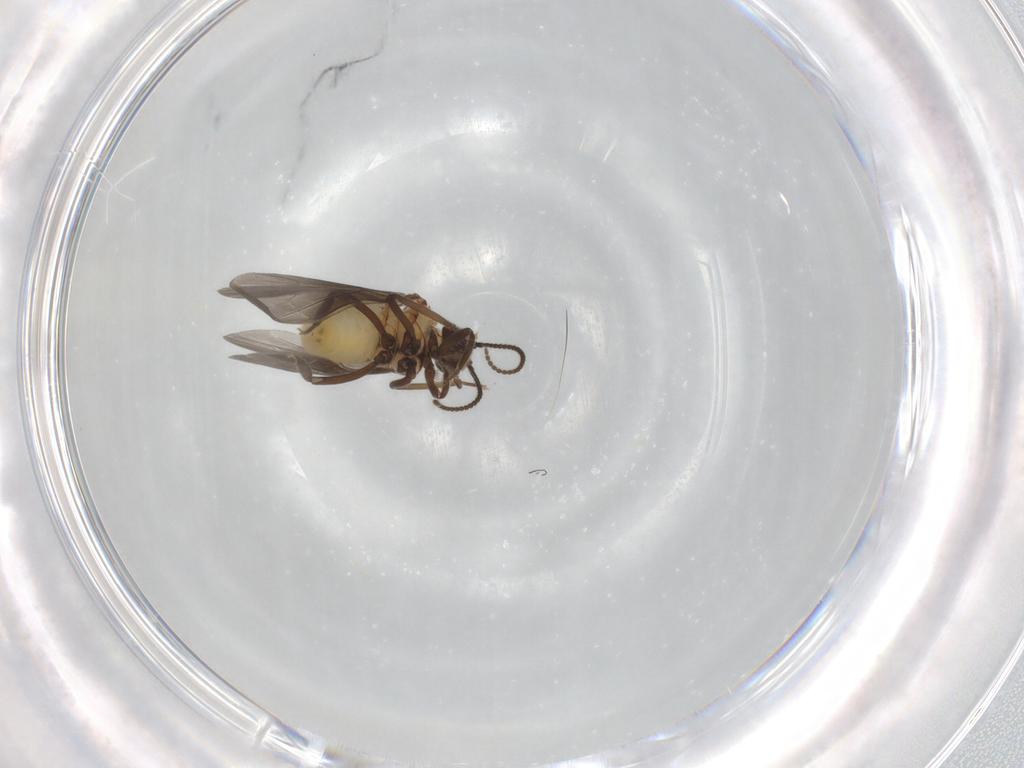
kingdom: Animalia
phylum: Arthropoda
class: Insecta
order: Neuroptera
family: Coniopterygidae
